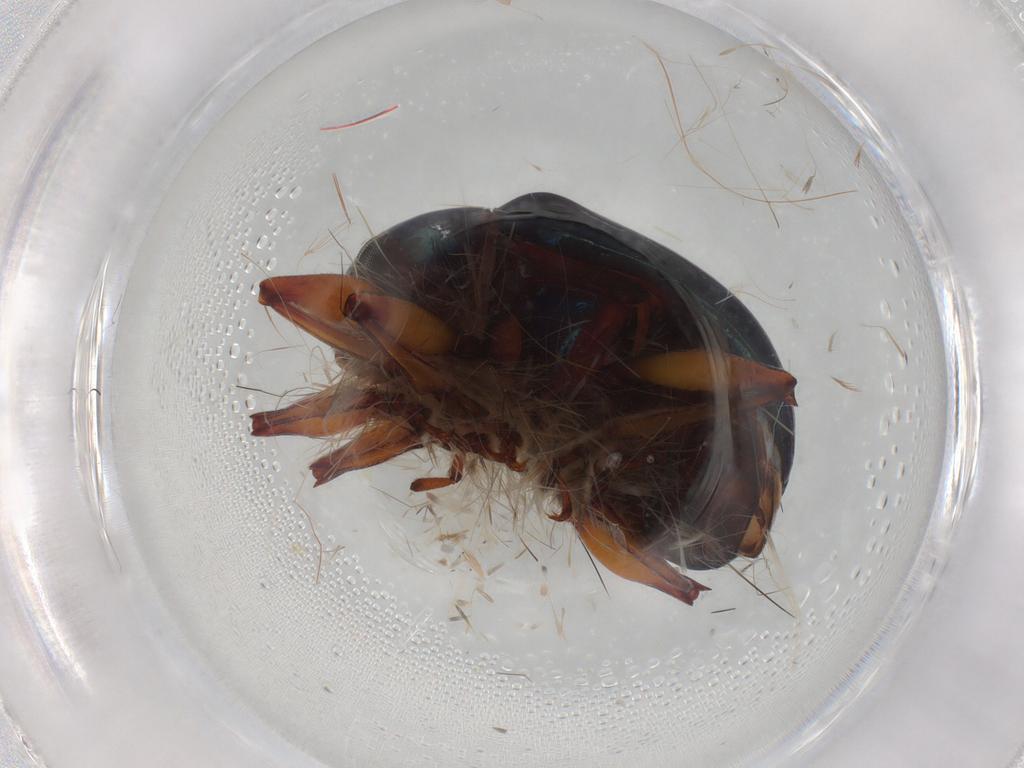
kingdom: Animalia
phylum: Arthropoda
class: Insecta
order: Coleoptera
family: Chrysomelidae
